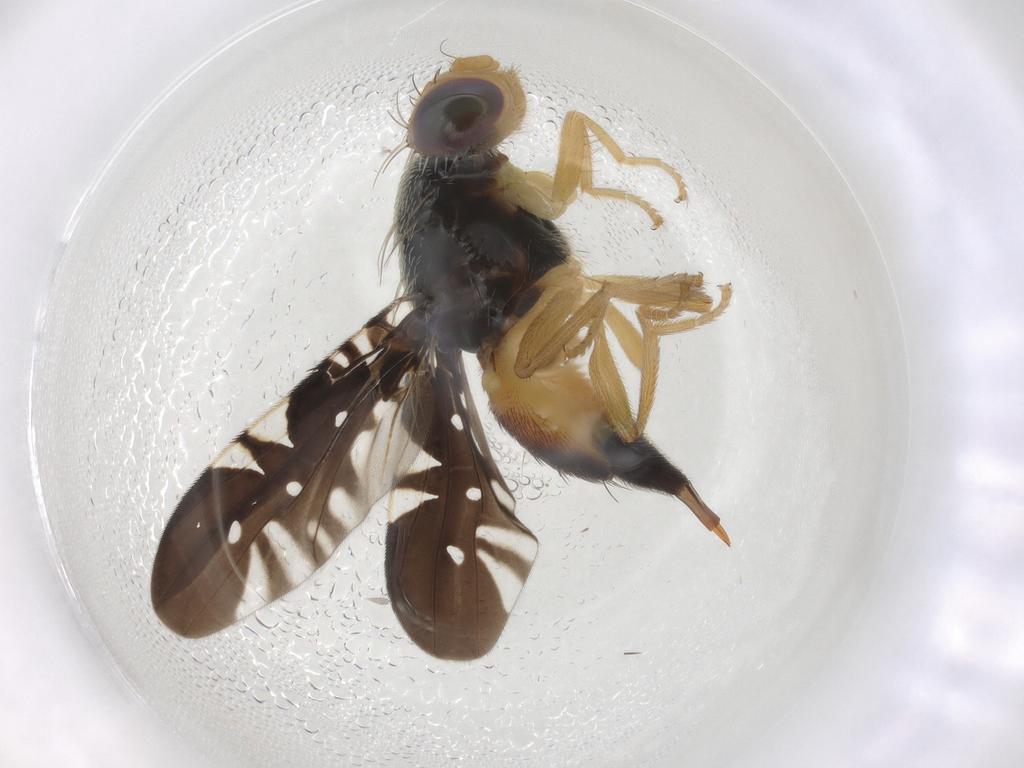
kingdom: Animalia
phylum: Arthropoda
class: Insecta
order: Diptera
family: Tephritidae
